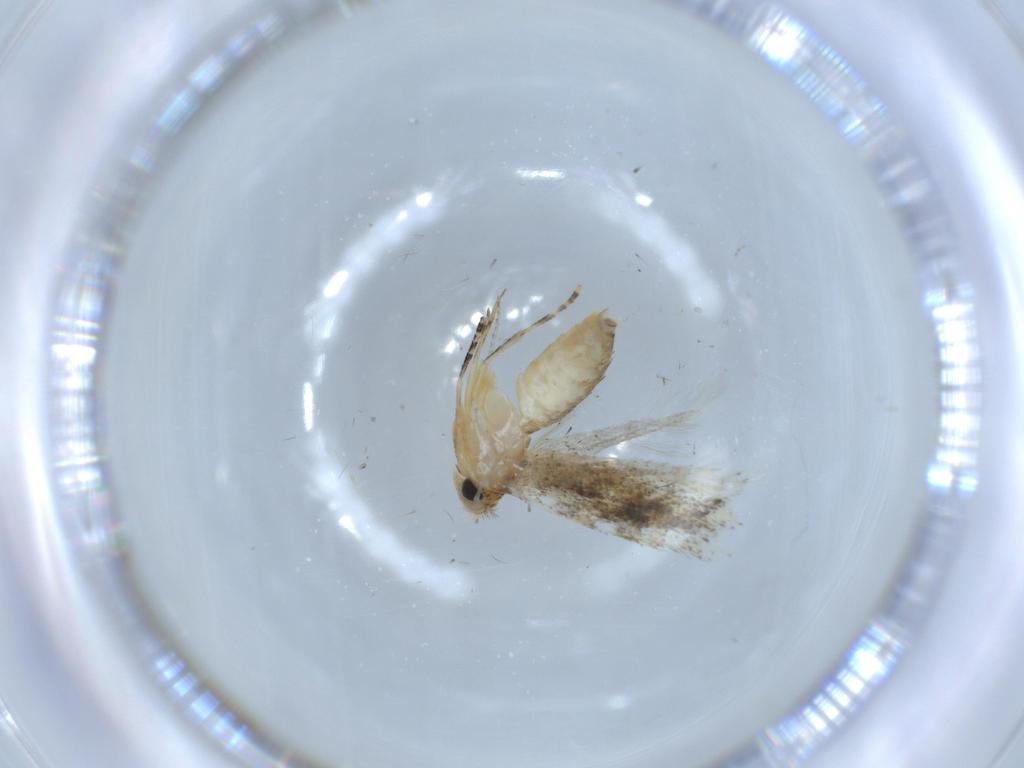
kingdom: Animalia
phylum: Arthropoda
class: Insecta
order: Lepidoptera
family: Bucculatricidae
